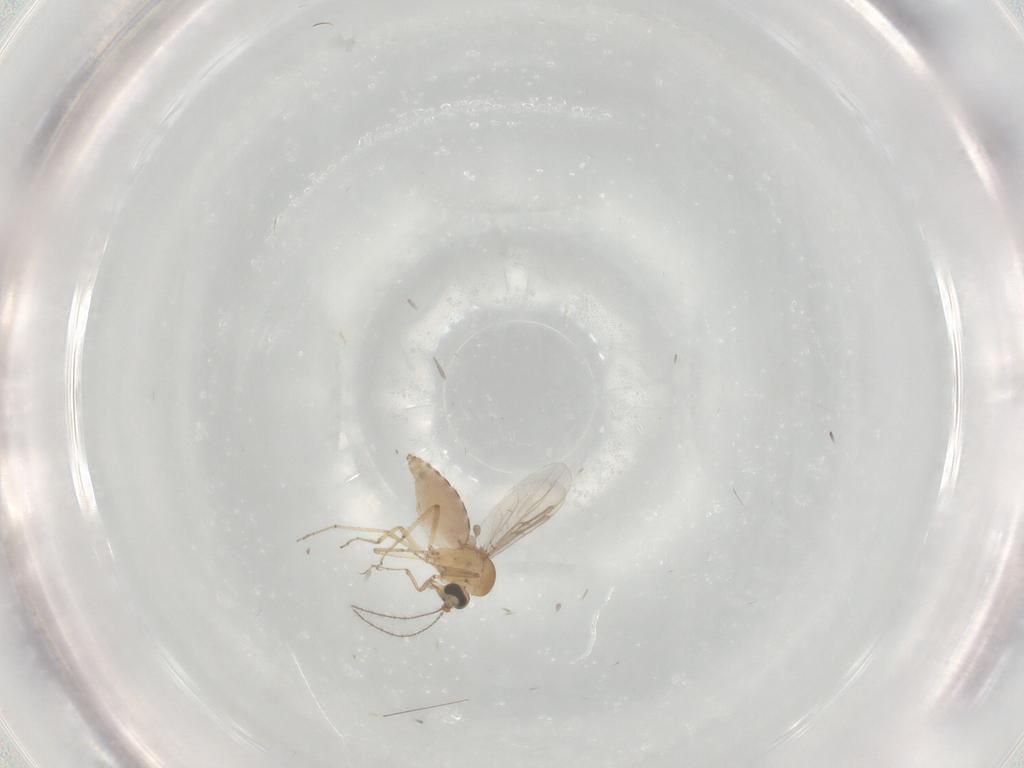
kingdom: Animalia
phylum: Arthropoda
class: Insecta
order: Diptera
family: Ceratopogonidae
